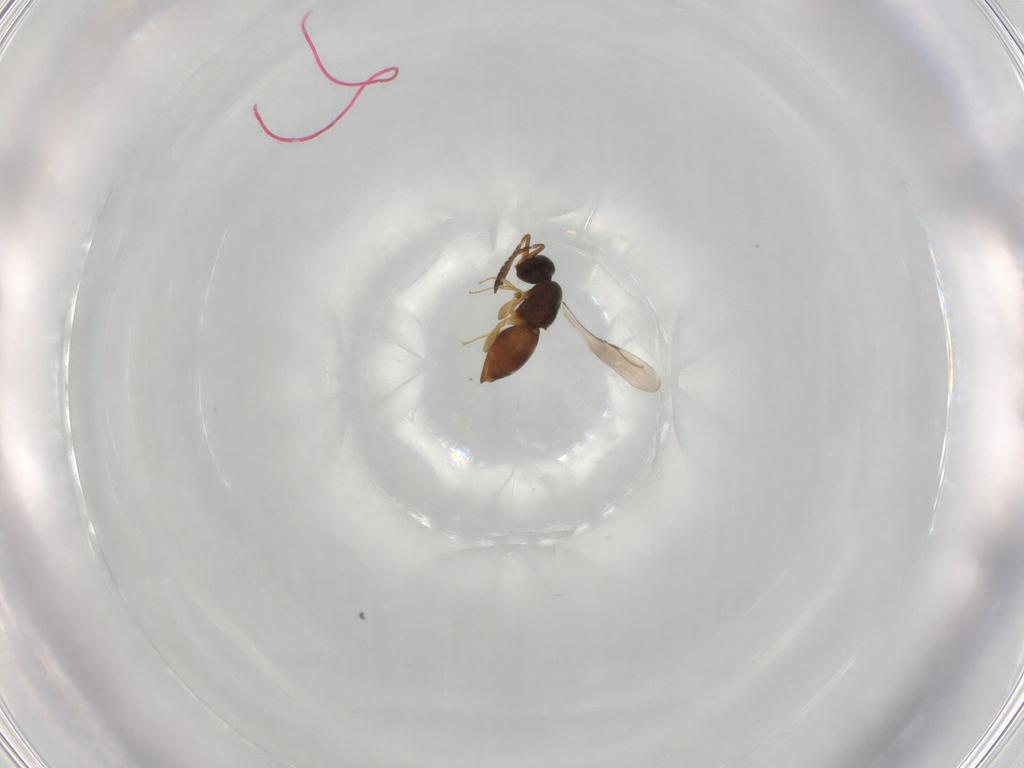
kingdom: Animalia
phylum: Arthropoda
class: Insecta
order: Hymenoptera
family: Ceraphronidae
